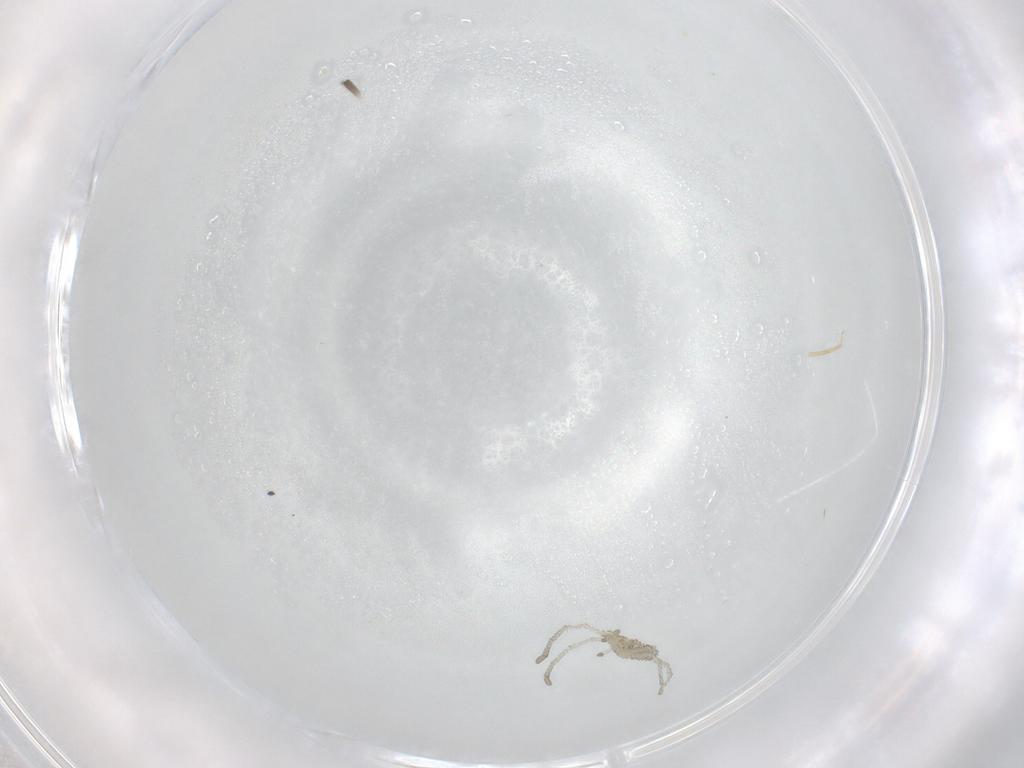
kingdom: Animalia
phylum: Arthropoda
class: Arachnida
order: Trombidiformes
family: Smarididae
